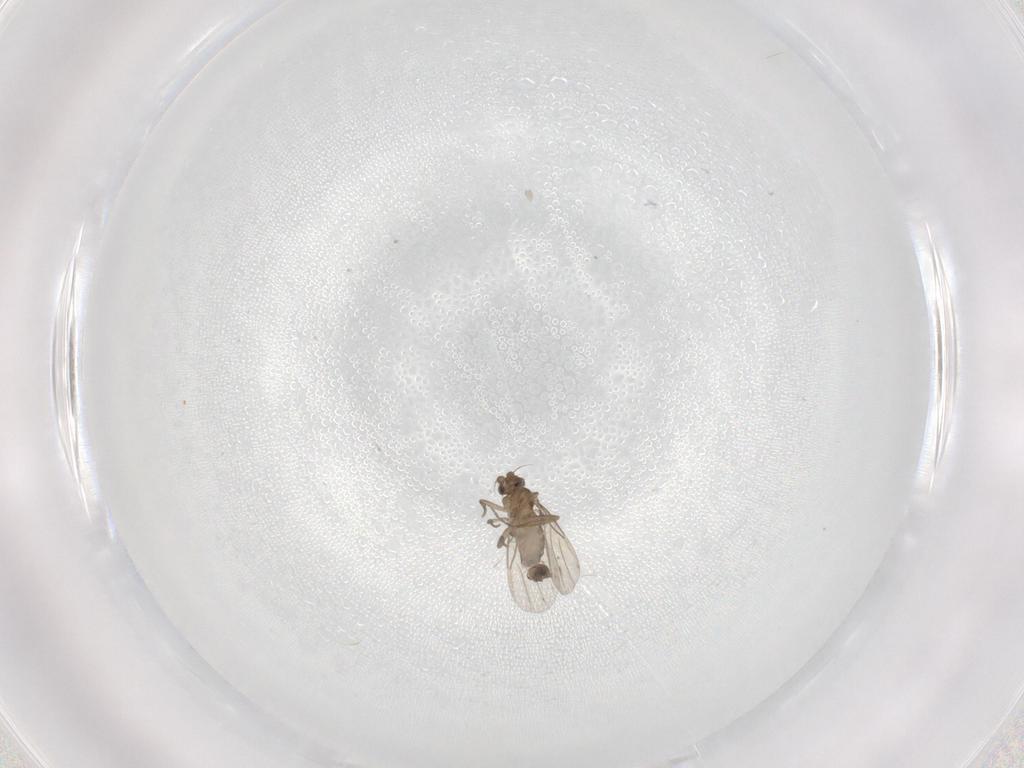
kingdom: Animalia
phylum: Arthropoda
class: Insecta
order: Diptera
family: Phoridae
